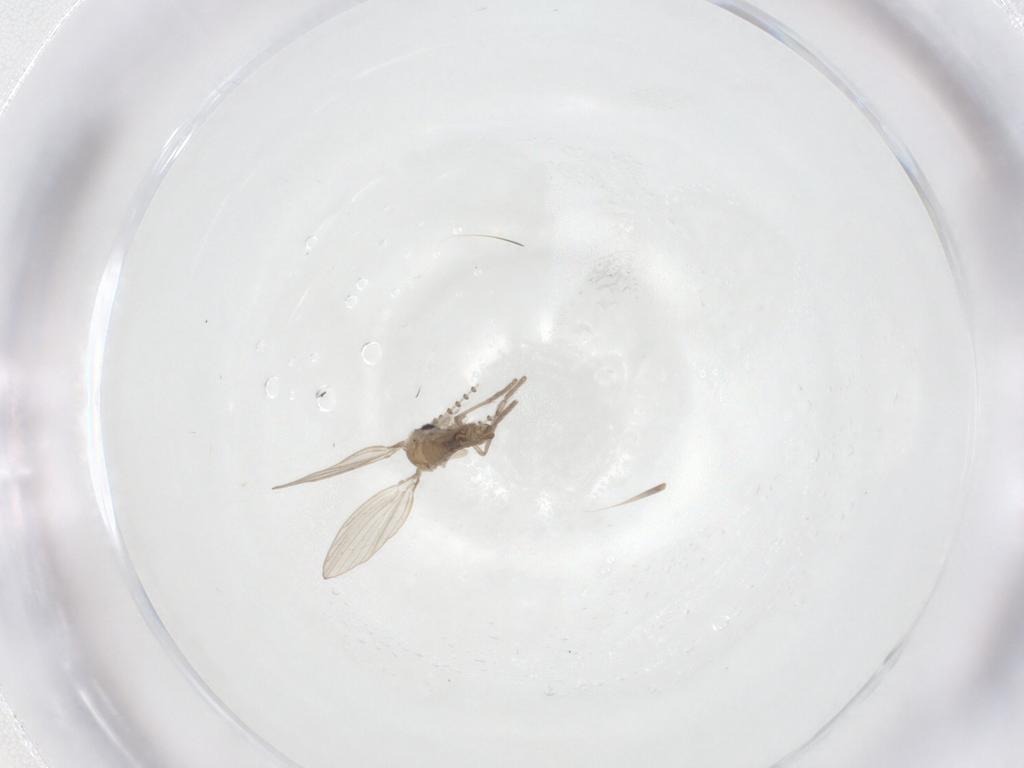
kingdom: Animalia
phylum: Arthropoda
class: Insecta
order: Diptera
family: Psychodidae
